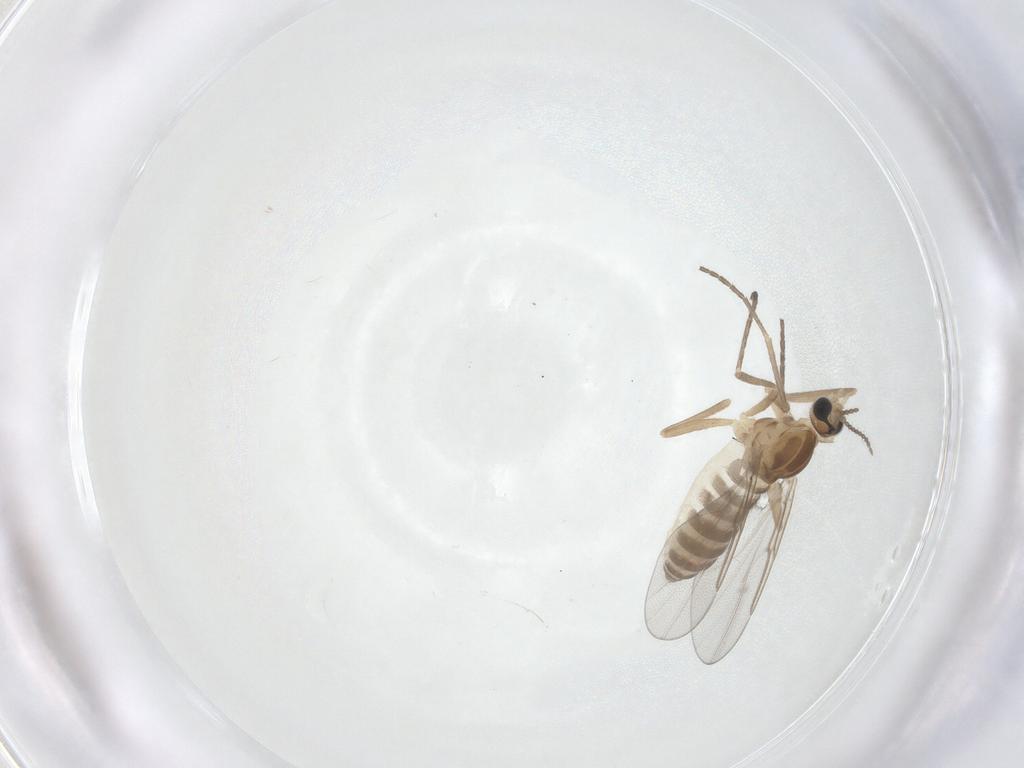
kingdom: Animalia
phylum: Arthropoda
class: Insecta
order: Diptera
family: Cecidomyiidae
